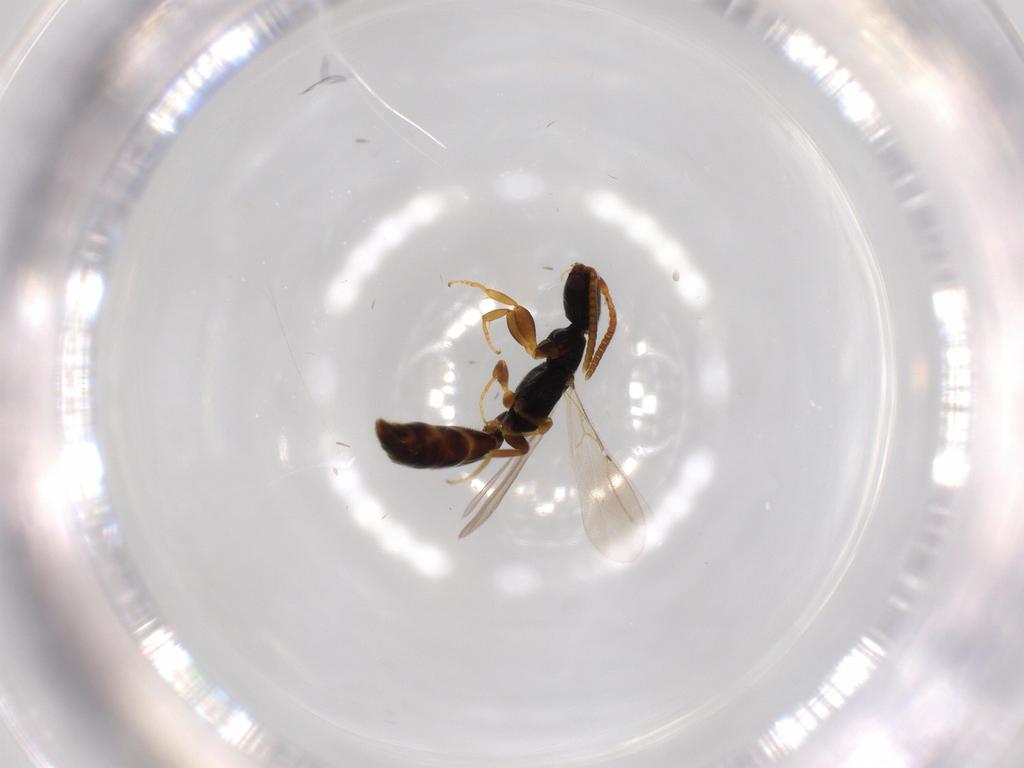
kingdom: Animalia
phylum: Arthropoda
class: Insecta
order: Hymenoptera
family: Bethylidae
